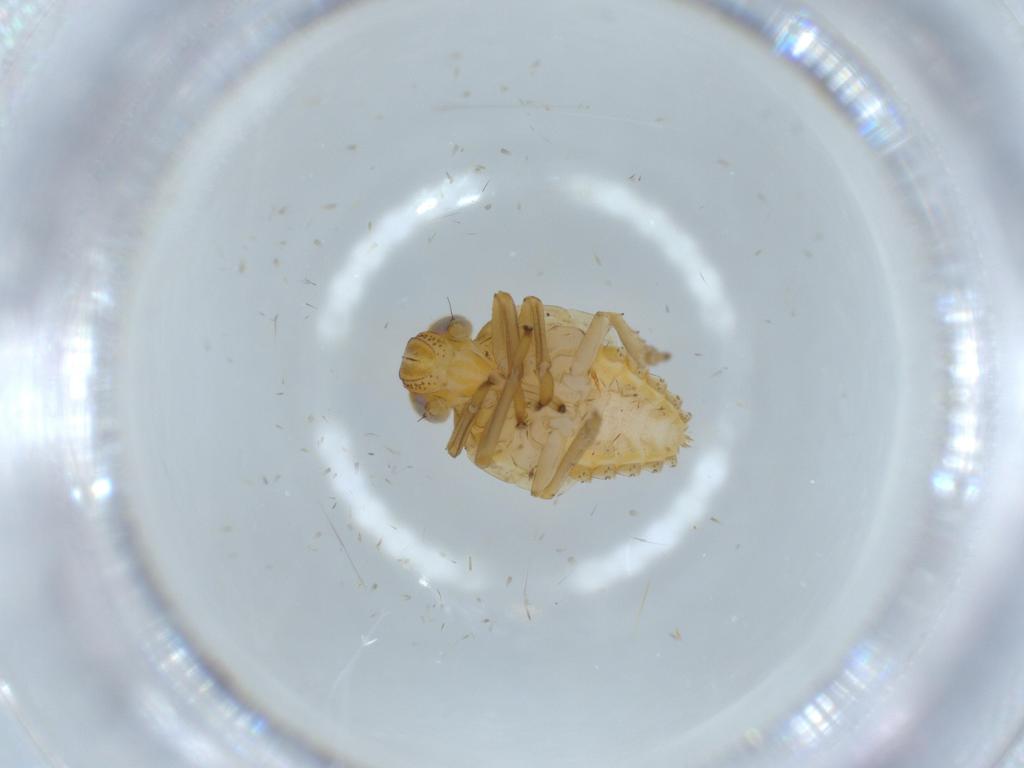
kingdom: Animalia
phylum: Arthropoda
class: Insecta
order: Hemiptera
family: Issidae
